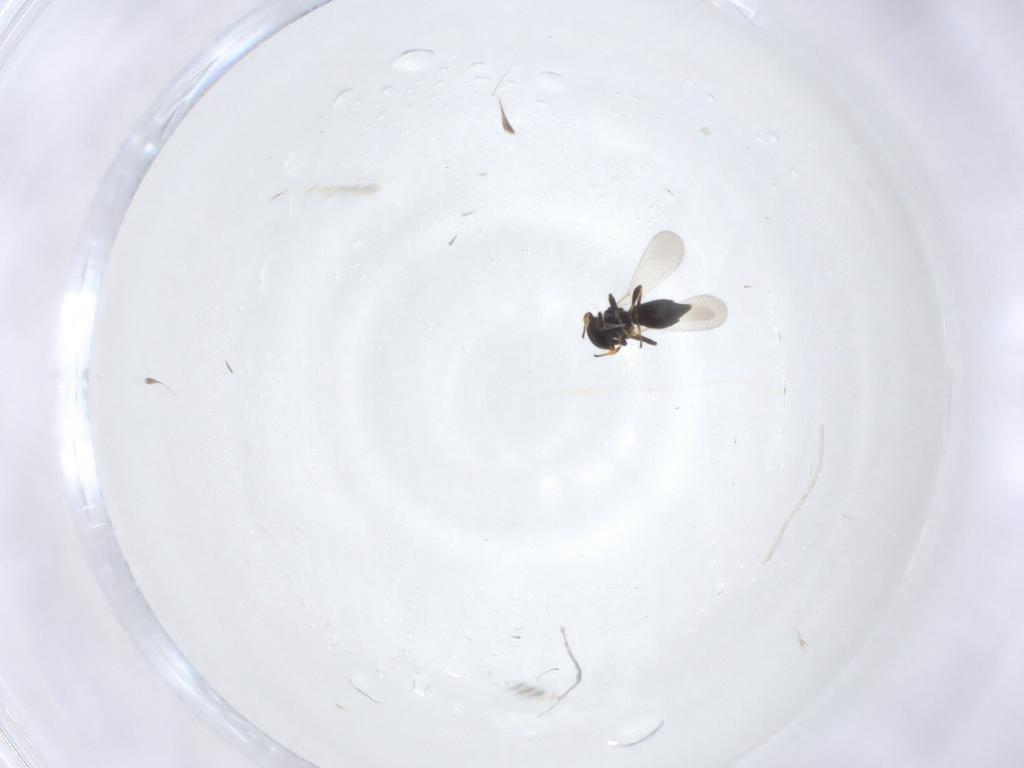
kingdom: Animalia
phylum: Arthropoda
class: Insecta
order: Hymenoptera
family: Platygastridae
